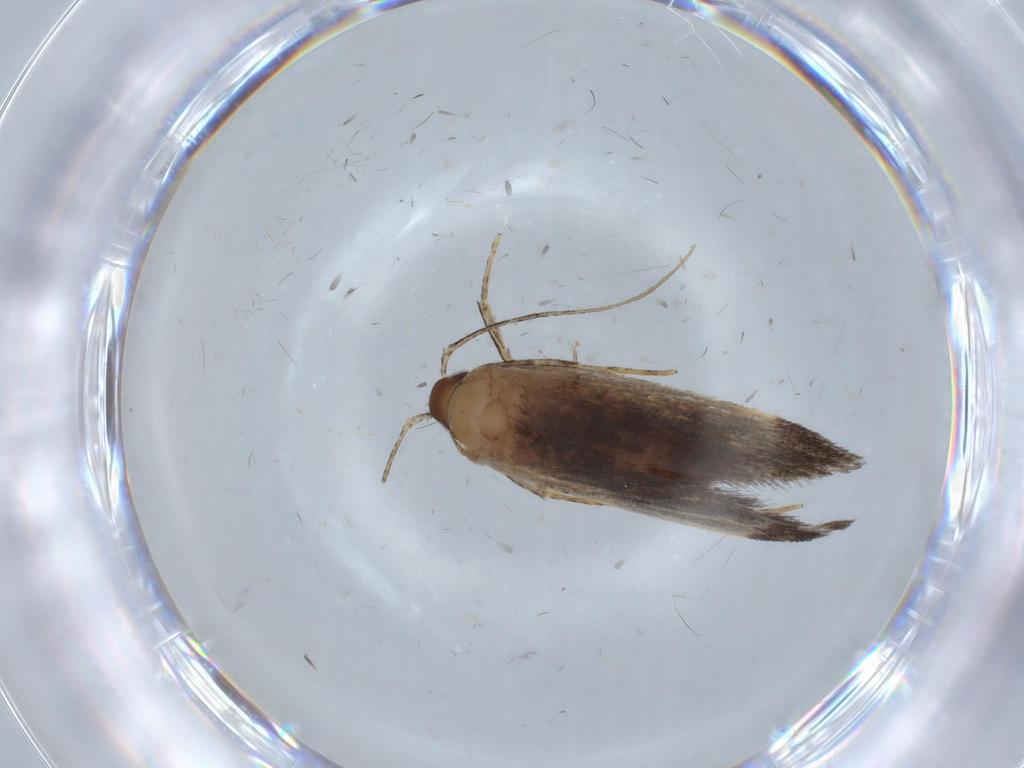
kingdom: Animalia
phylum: Arthropoda
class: Insecta
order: Lepidoptera
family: Cosmopterigidae
